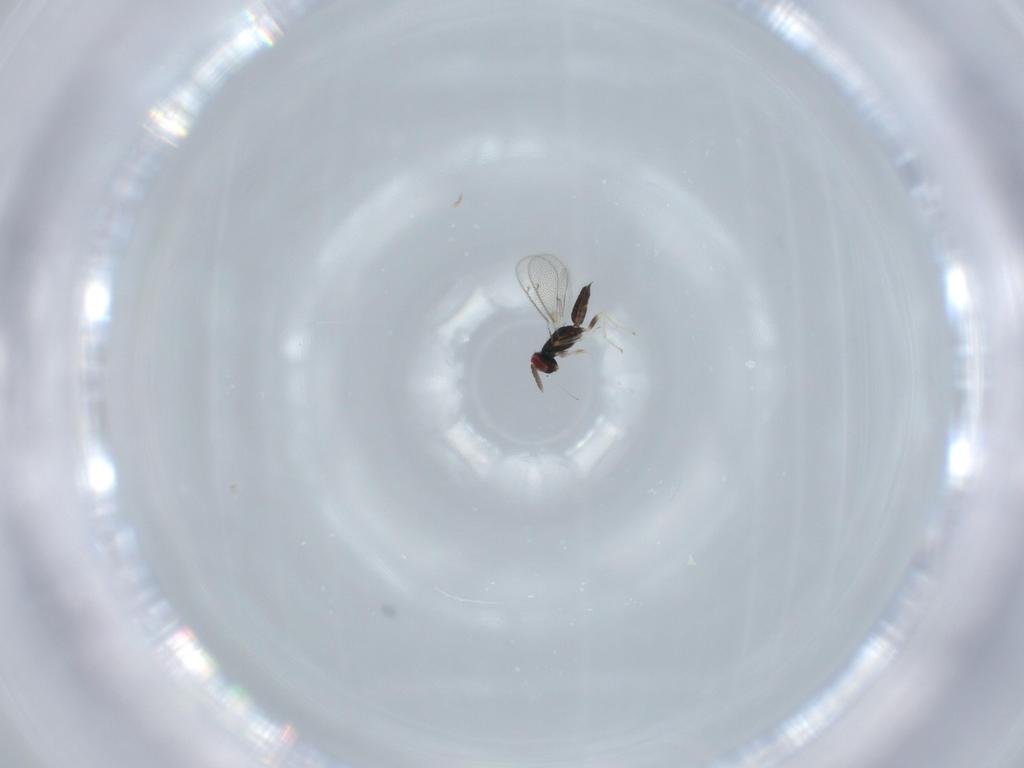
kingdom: Animalia
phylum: Arthropoda
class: Insecta
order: Hymenoptera
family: Eulophidae
